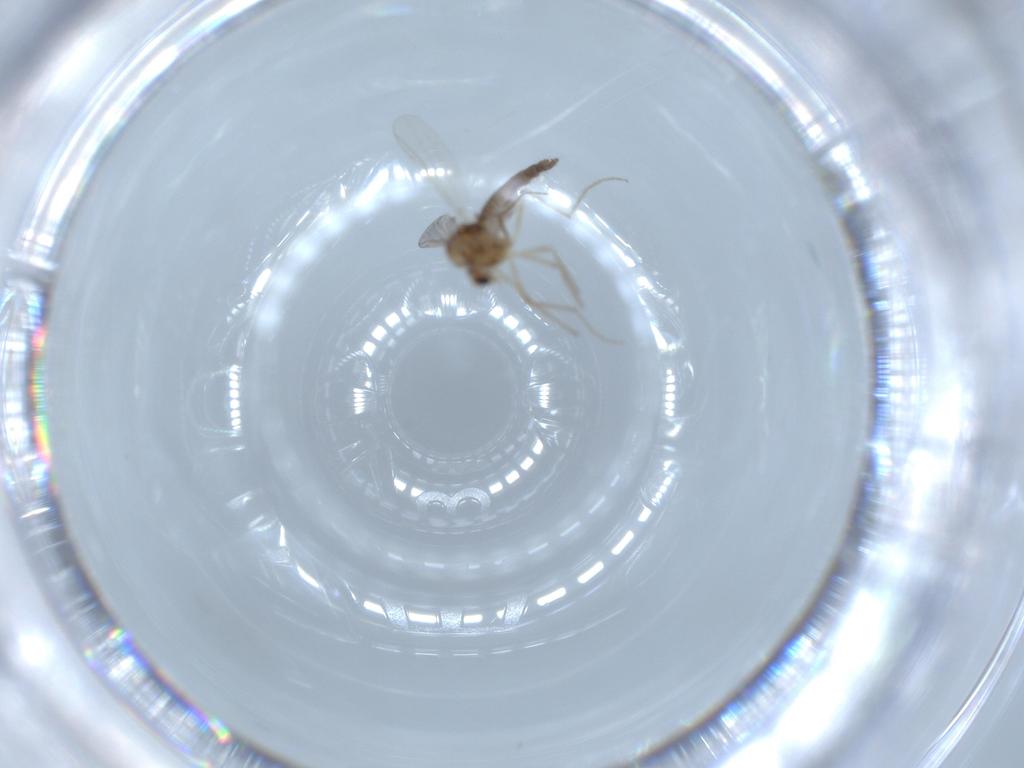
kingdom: Animalia
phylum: Arthropoda
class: Insecta
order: Diptera
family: Chironomidae
